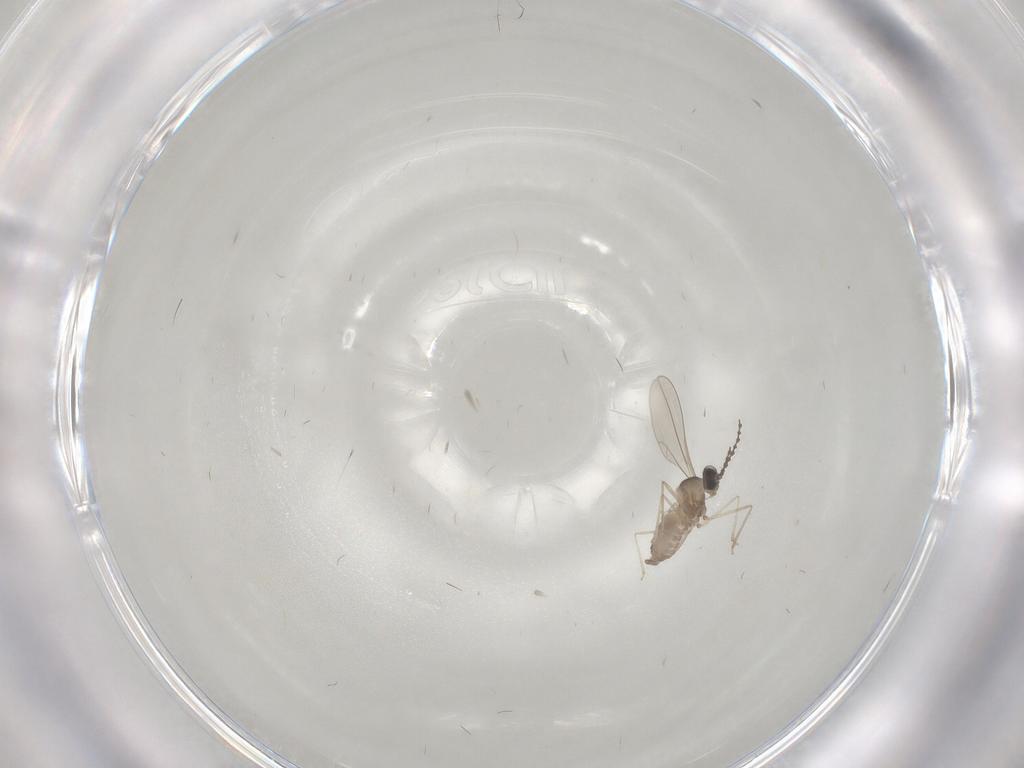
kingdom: Animalia
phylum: Arthropoda
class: Insecta
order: Diptera
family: Cecidomyiidae
